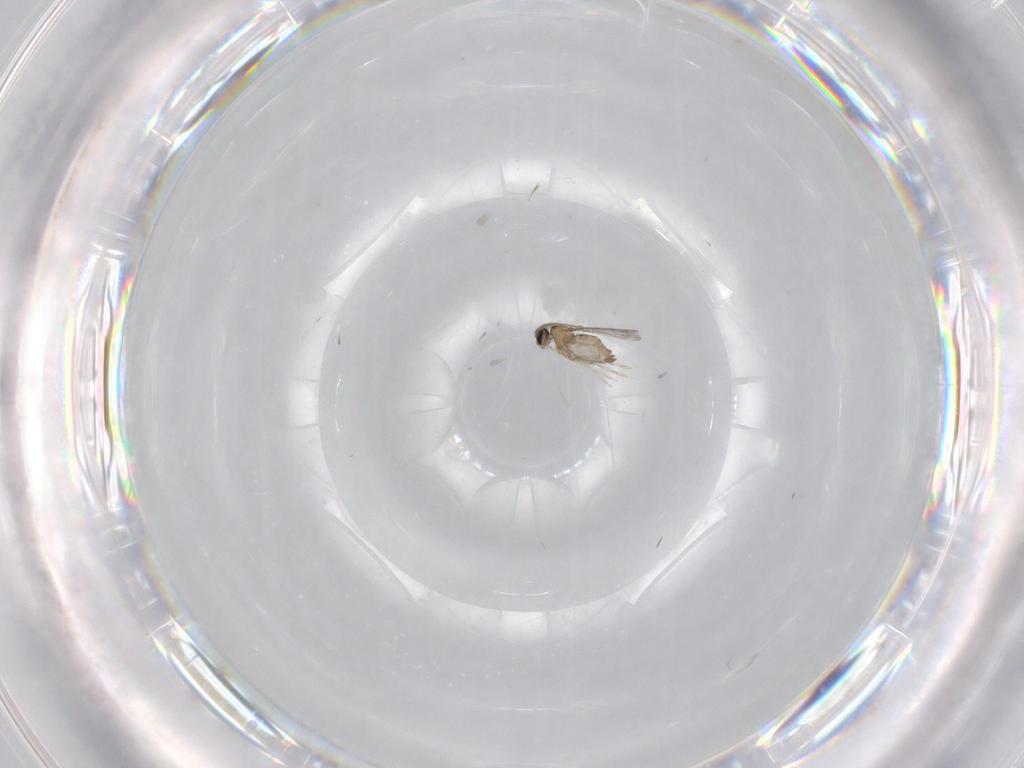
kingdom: Animalia
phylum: Arthropoda
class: Insecta
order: Diptera
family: Cecidomyiidae
